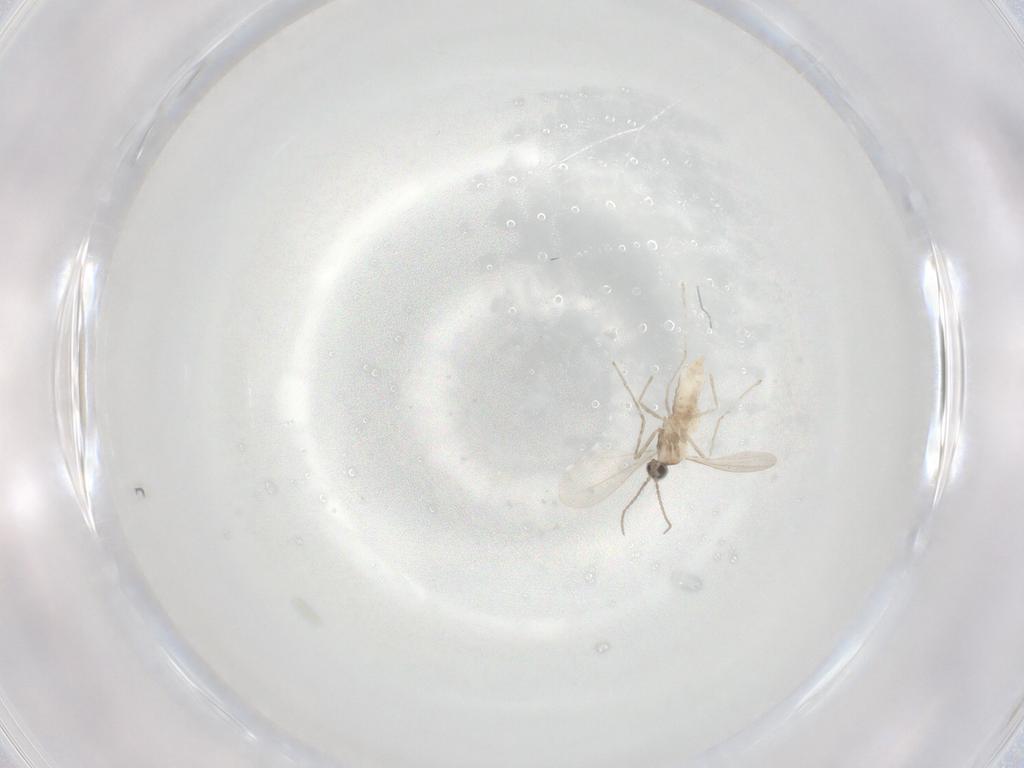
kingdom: Animalia
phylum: Arthropoda
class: Insecta
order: Diptera
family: Cecidomyiidae
